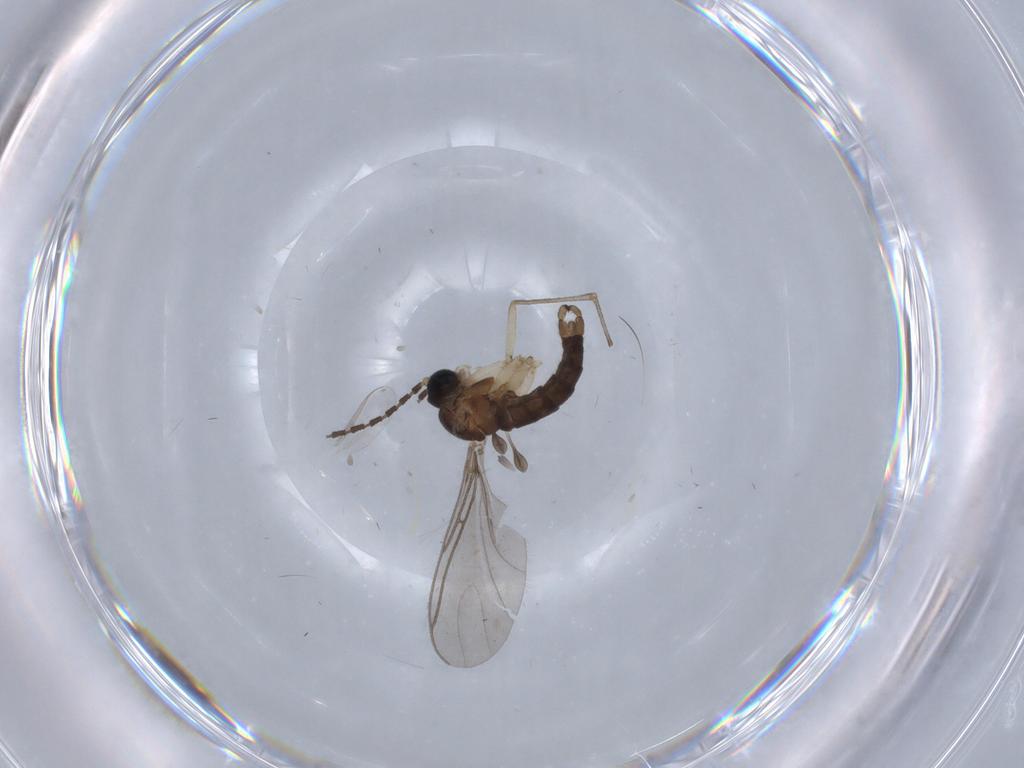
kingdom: Animalia
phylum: Arthropoda
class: Insecta
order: Diptera
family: Sciaridae
